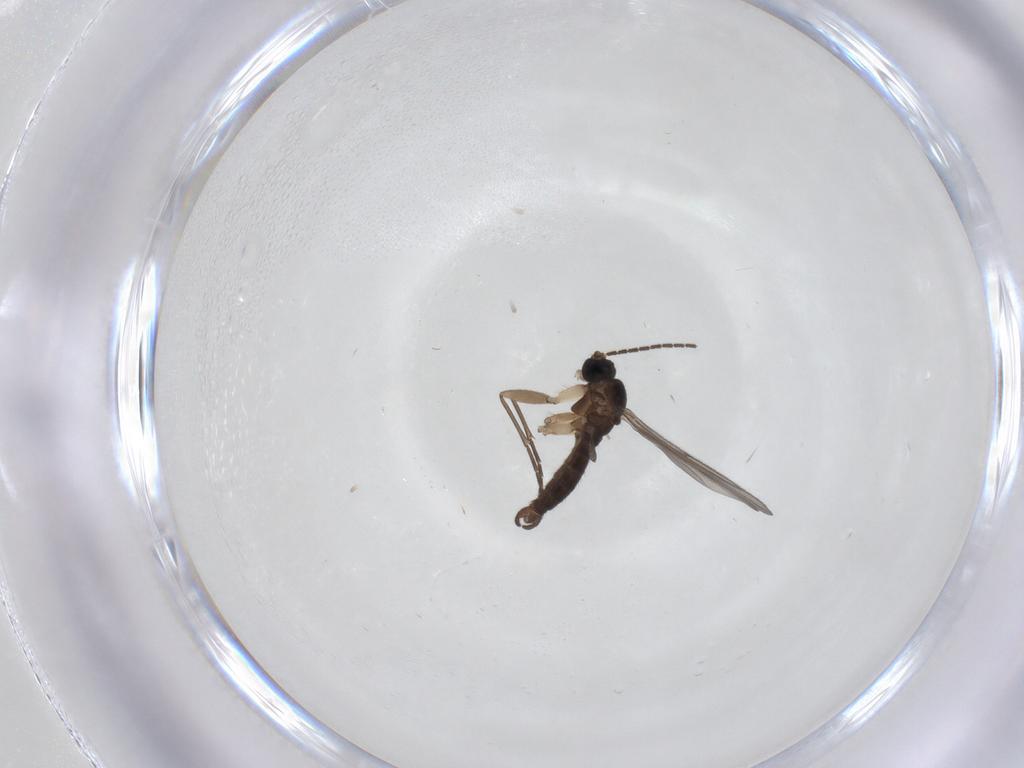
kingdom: Animalia
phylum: Arthropoda
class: Insecta
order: Diptera
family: Sciaridae
